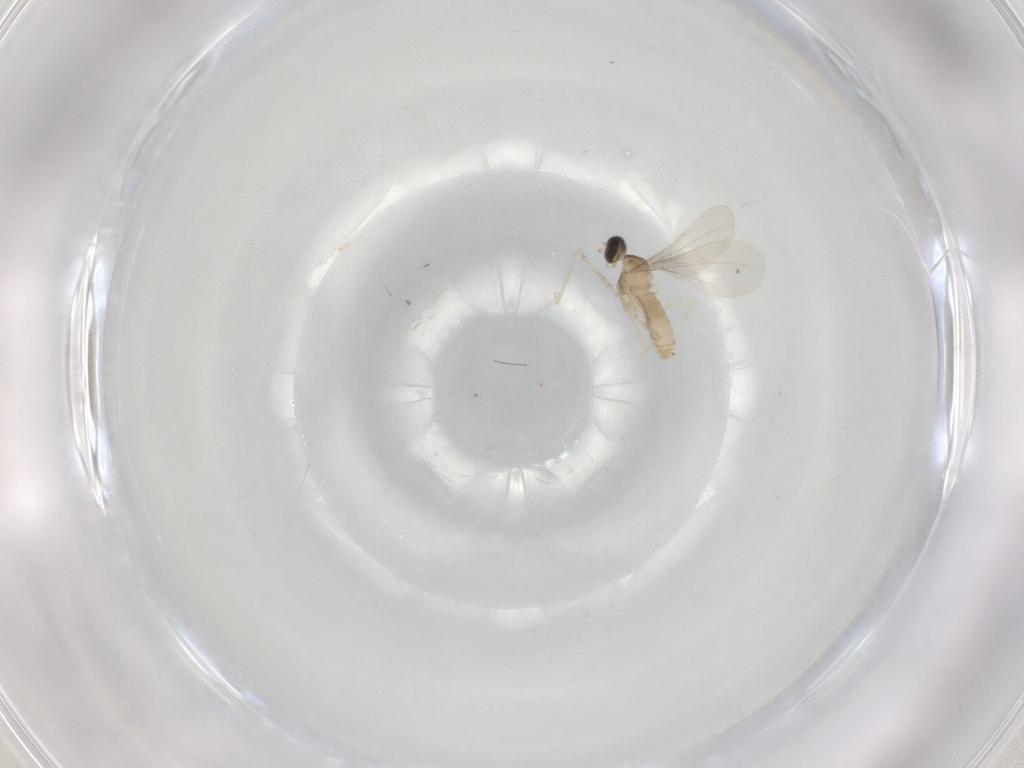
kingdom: Animalia
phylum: Arthropoda
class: Insecta
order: Diptera
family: Cecidomyiidae
